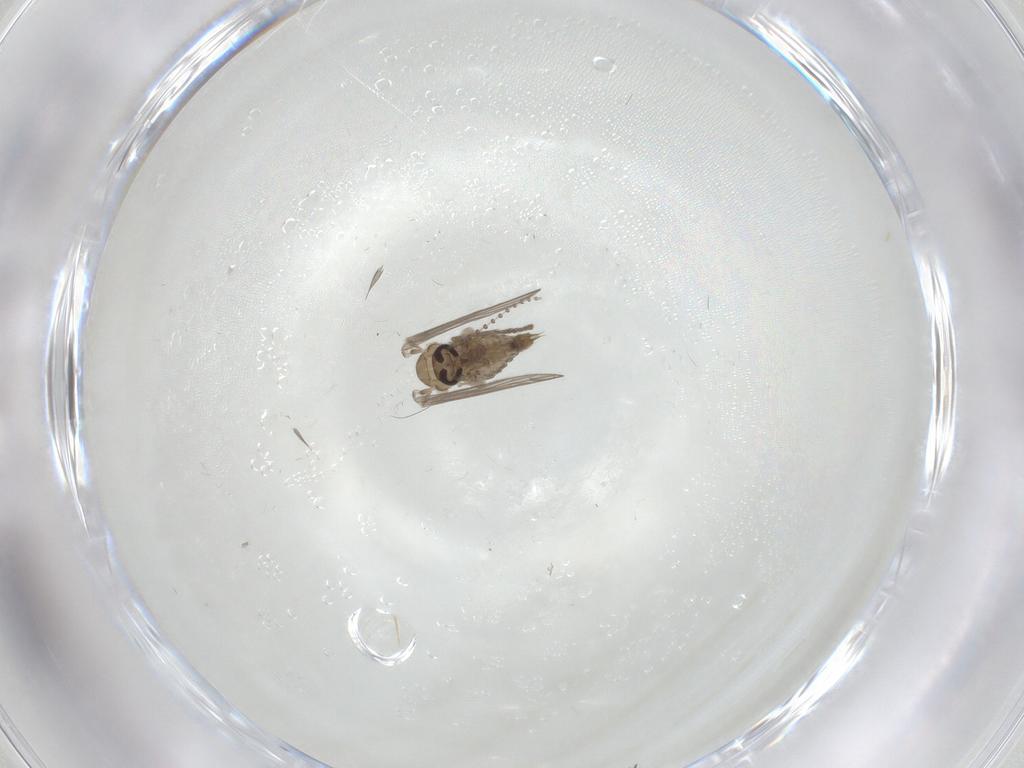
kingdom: Animalia
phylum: Arthropoda
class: Insecta
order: Diptera
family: Psychodidae
